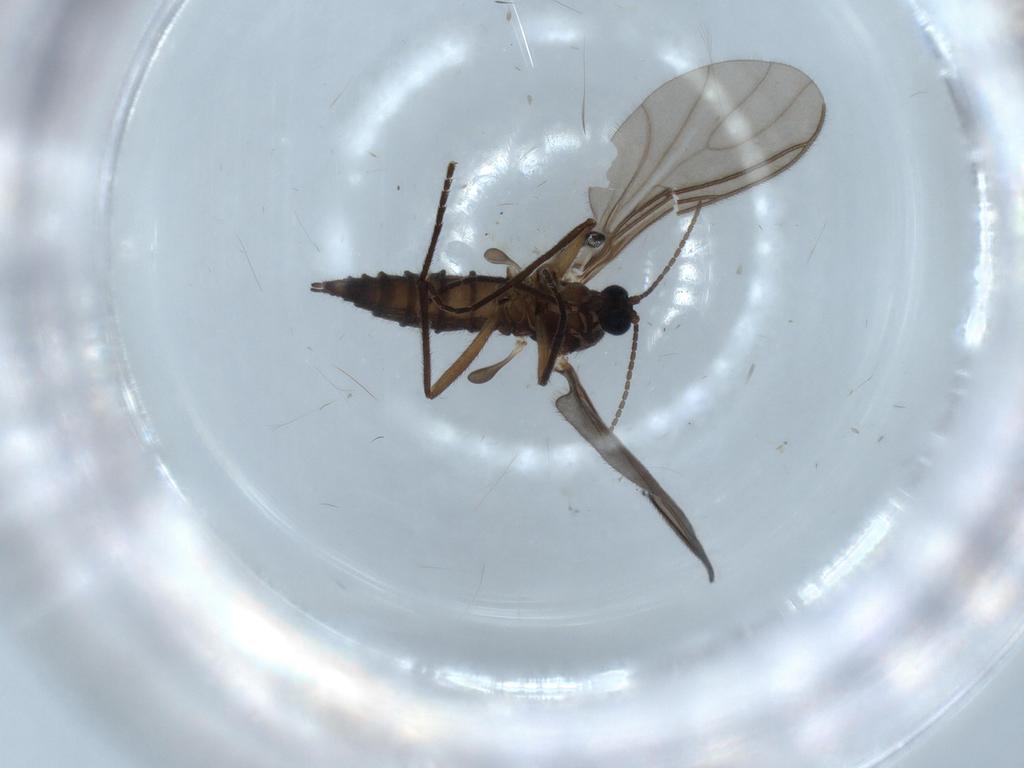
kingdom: Animalia
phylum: Arthropoda
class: Insecta
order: Diptera
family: Sciaridae
